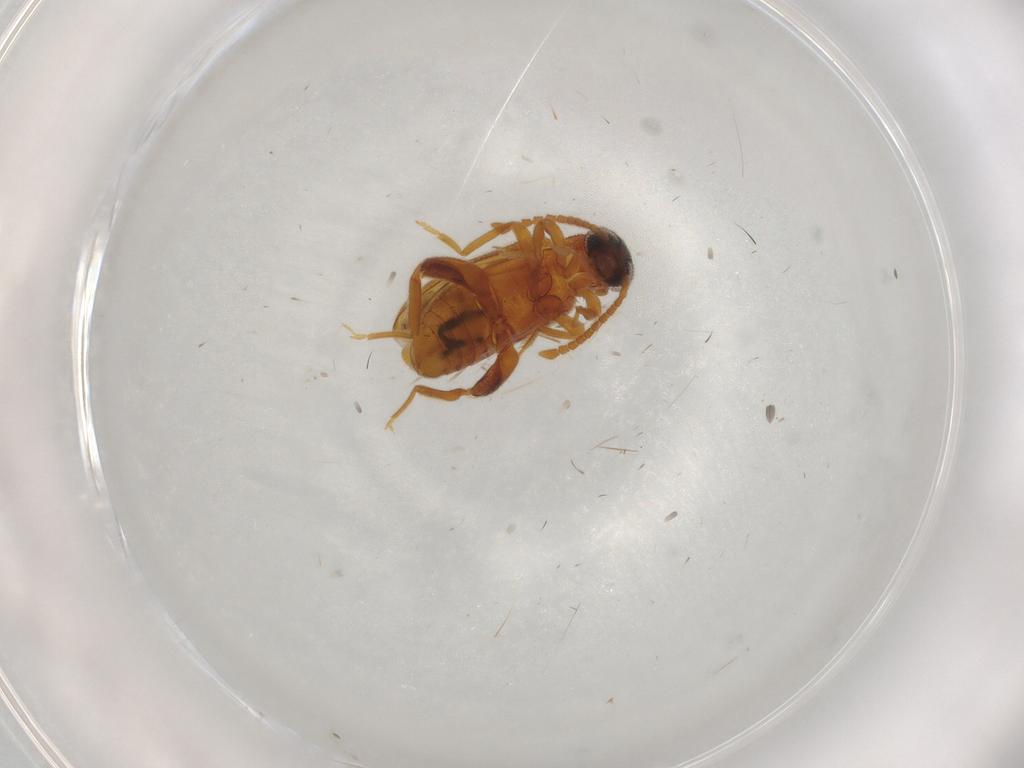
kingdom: Animalia
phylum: Arthropoda
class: Insecta
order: Coleoptera
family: Aderidae
